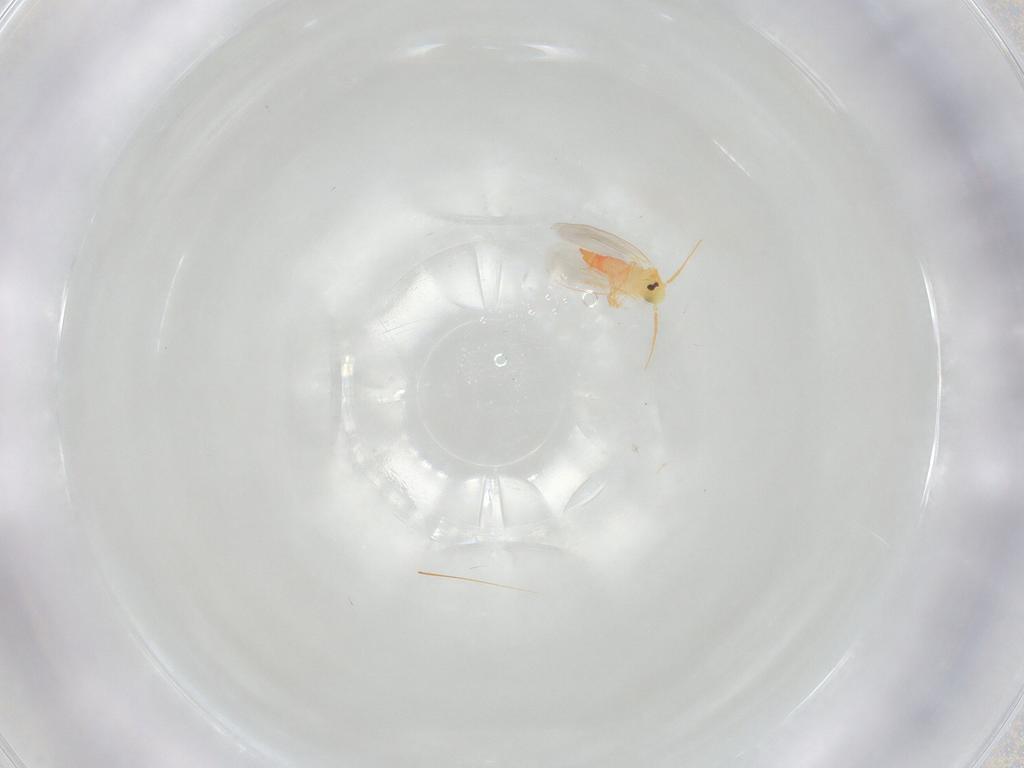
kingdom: Animalia
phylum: Arthropoda
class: Insecta
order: Hemiptera
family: Aleyrodidae
